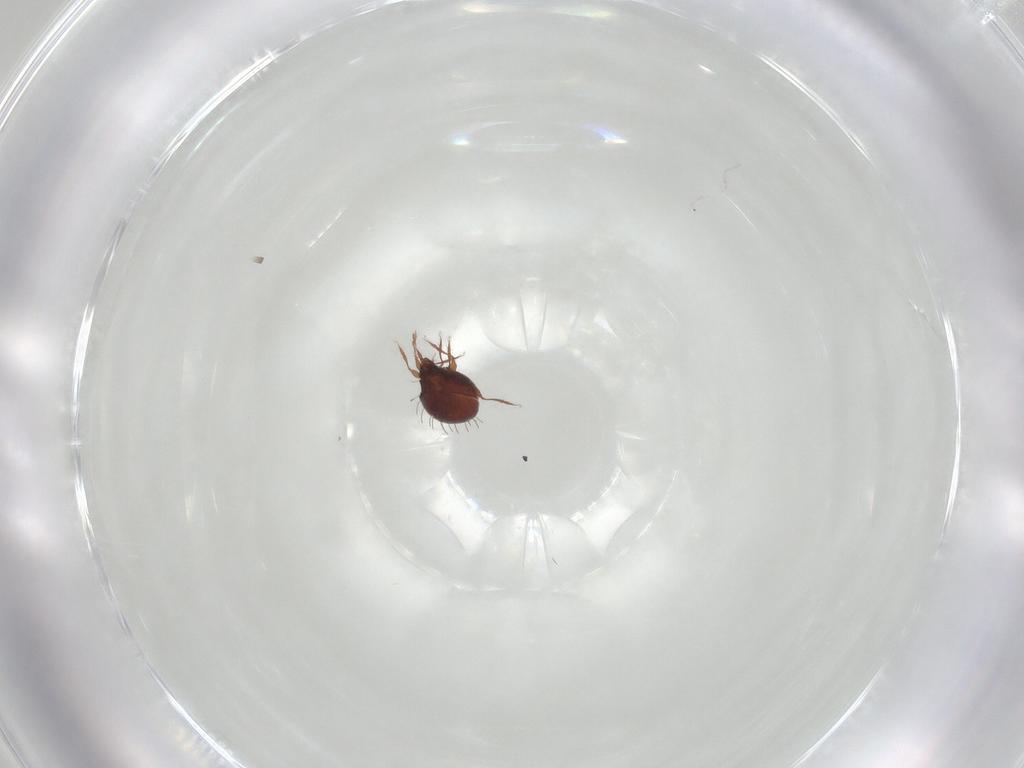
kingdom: Animalia
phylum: Arthropoda
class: Arachnida
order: Sarcoptiformes
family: Caloppiidae
